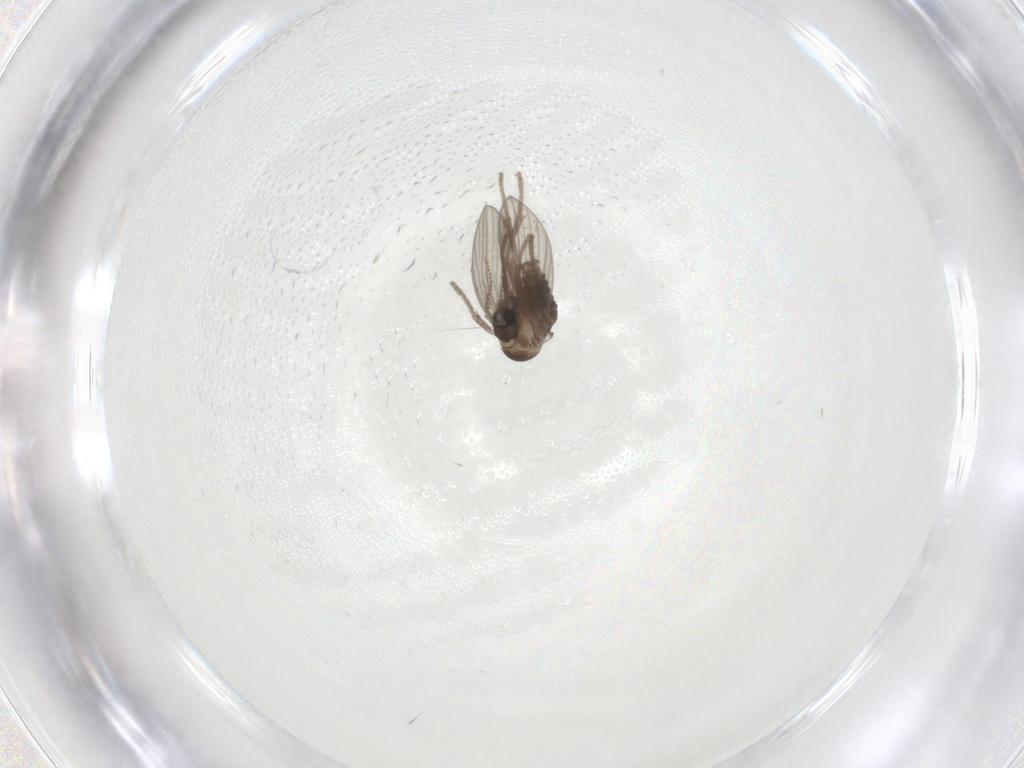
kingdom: Animalia
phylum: Arthropoda
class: Insecta
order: Diptera
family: Psychodidae
